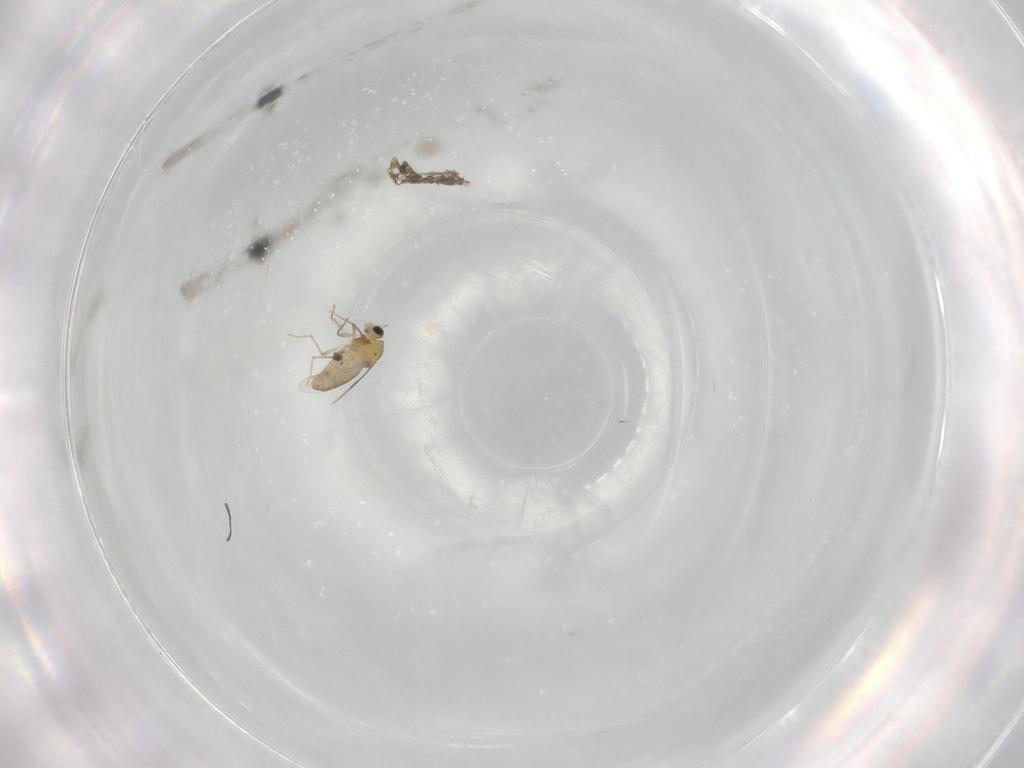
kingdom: Animalia
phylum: Arthropoda
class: Insecta
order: Diptera
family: Chironomidae
